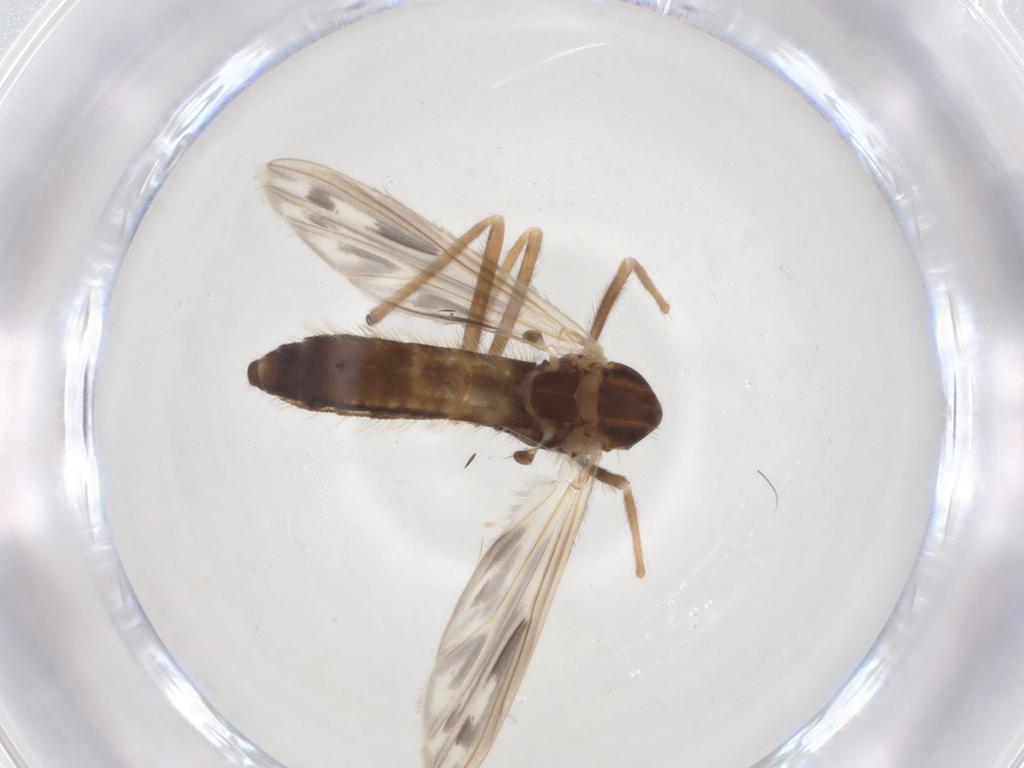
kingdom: Animalia
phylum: Arthropoda
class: Insecta
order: Diptera
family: Chironomidae
